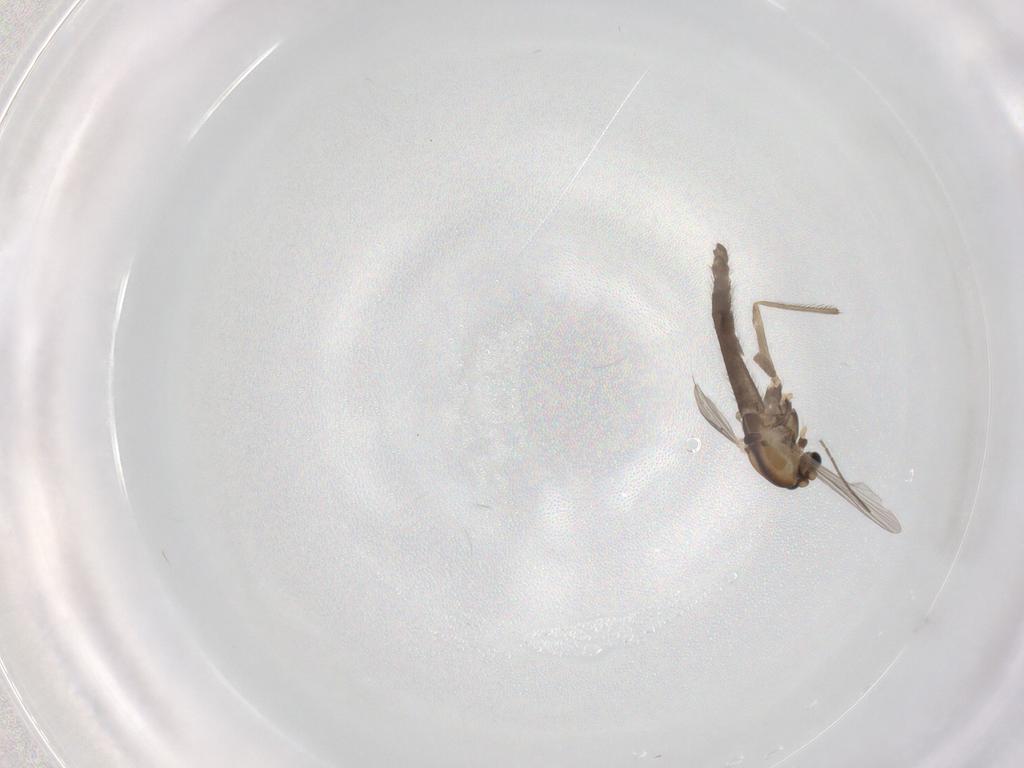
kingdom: Animalia
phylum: Arthropoda
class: Insecta
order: Diptera
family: Chironomidae
